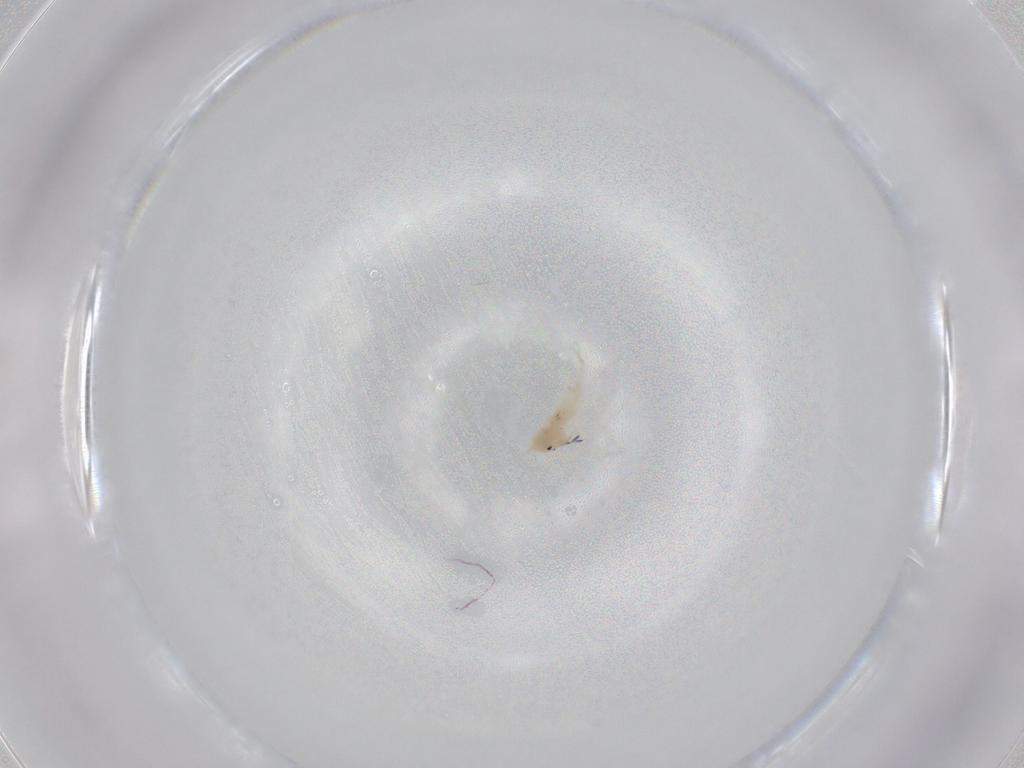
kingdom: Animalia
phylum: Arthropoda
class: Collembola
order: Entomobryomorpha
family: Entomobryidae
